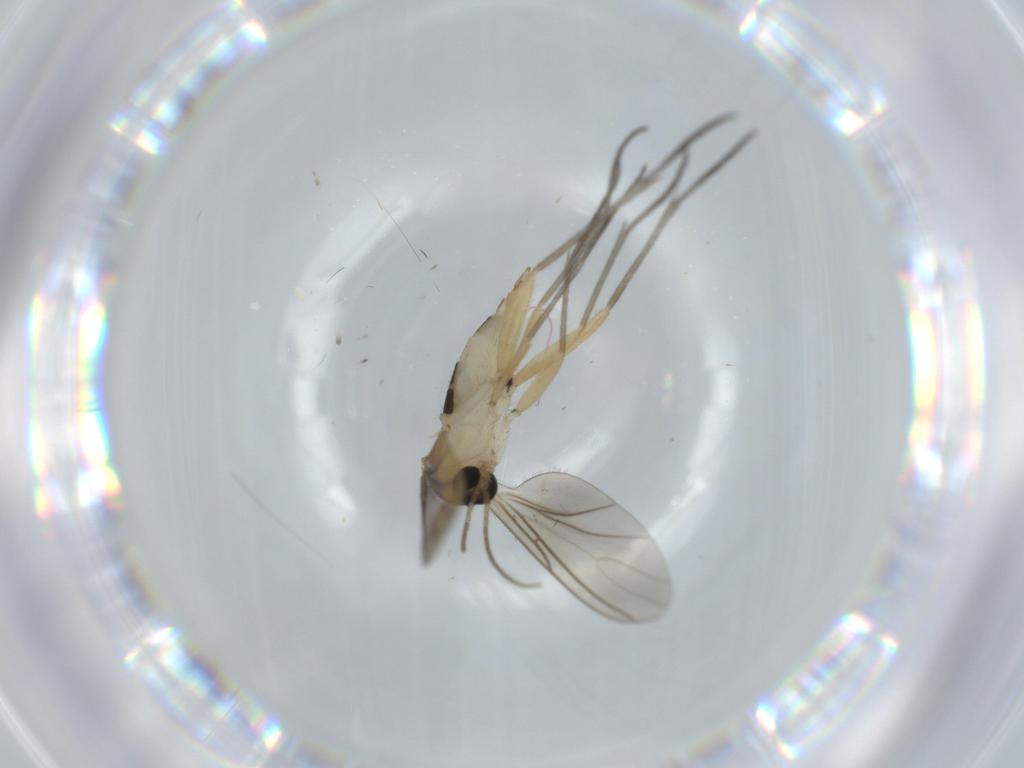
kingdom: Animalia
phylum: Arthropoda
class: Insecta
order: Diptera
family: Sciaridae
